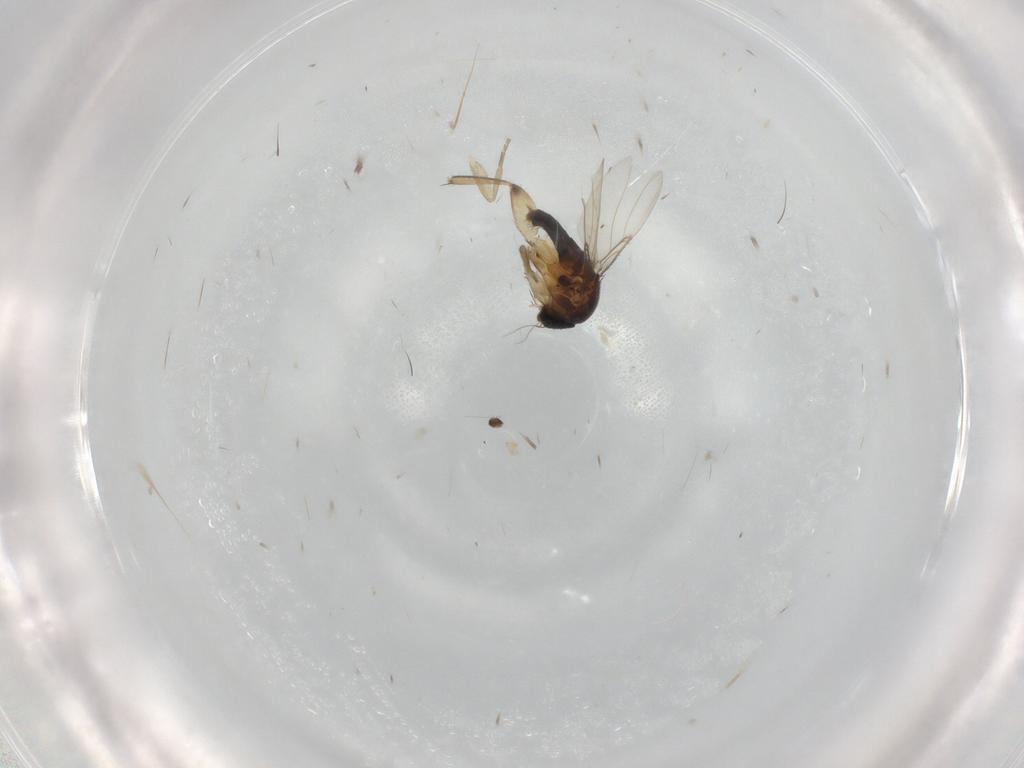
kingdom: Animalia
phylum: Arthropoda
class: Insecta
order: Diptera
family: Cecidomyiidae
